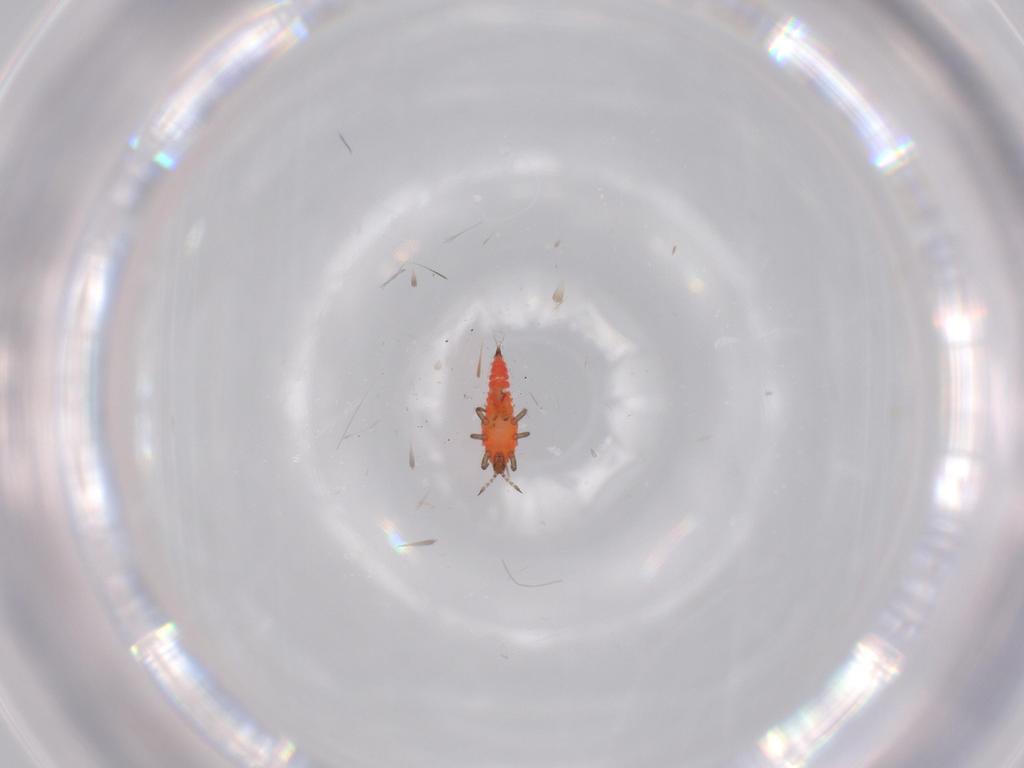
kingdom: Animalia
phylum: Arthropoda
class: Insecta
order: Thysanoptera
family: Phlaeothripidae
